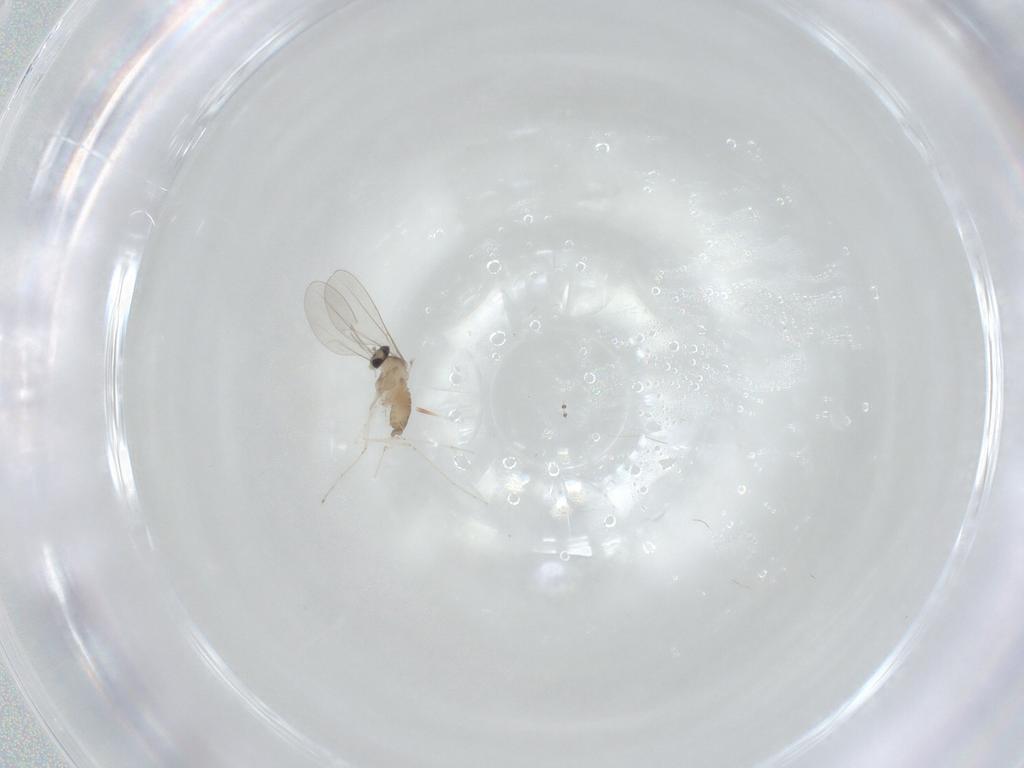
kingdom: Animalia
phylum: Arthropoda
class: Insecta
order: Diptera
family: Cecidomyiidae
